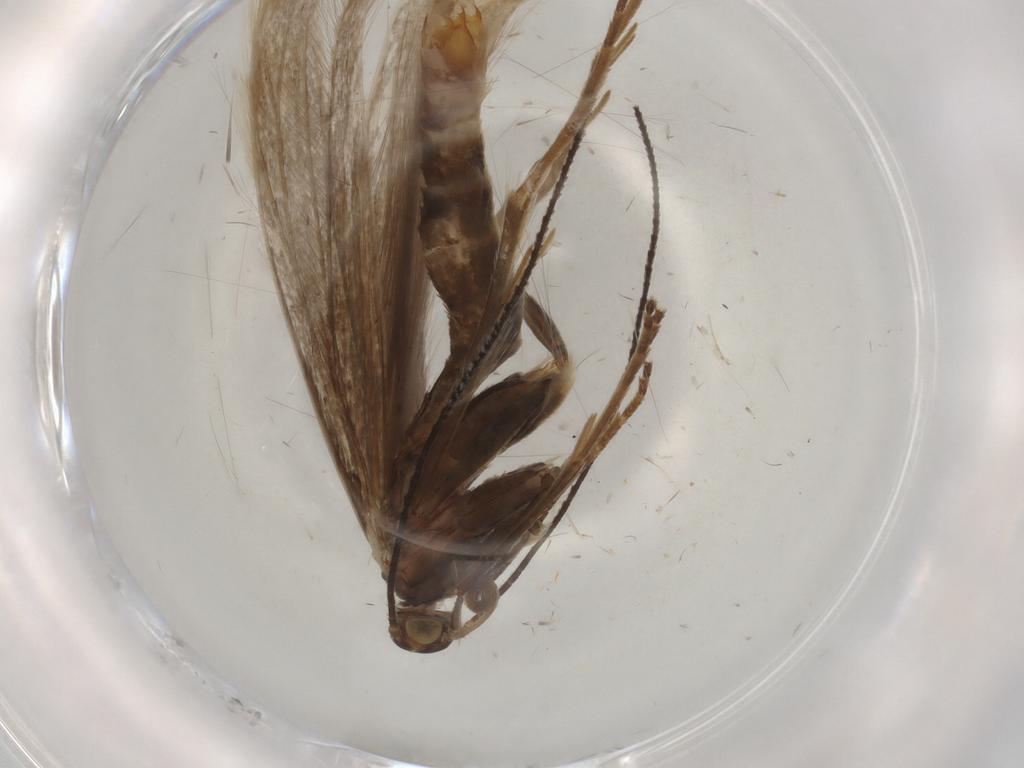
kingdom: Animalia
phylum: Arthropoda
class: Insecta
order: Lepidoptera
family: Coleophoridae
